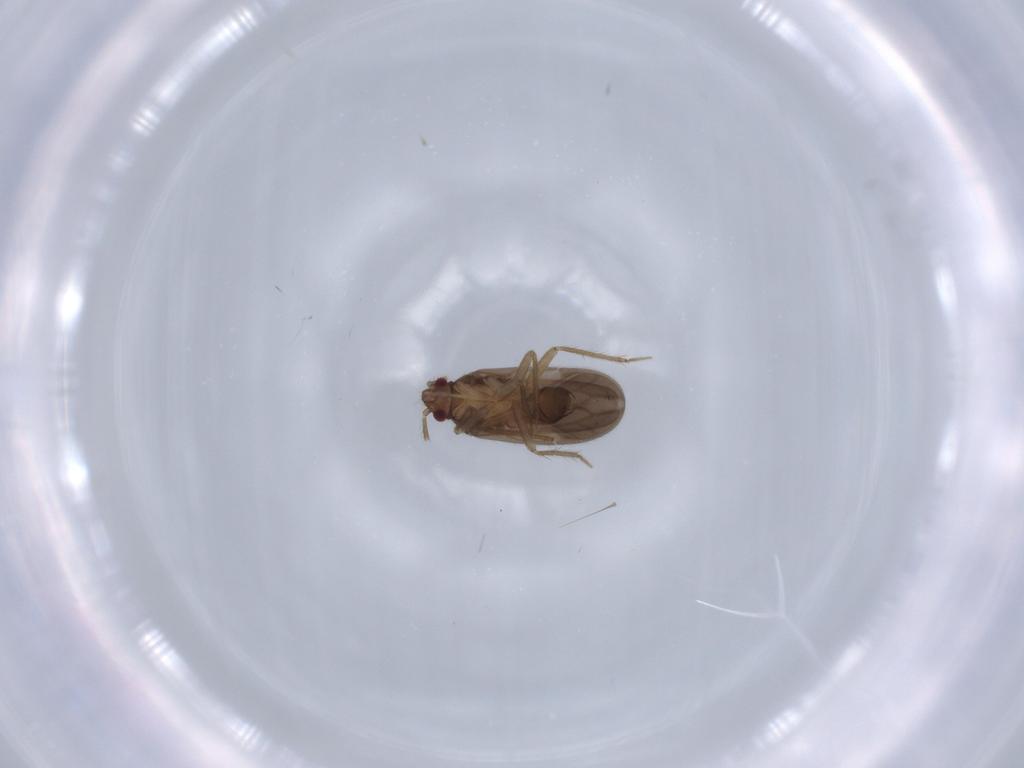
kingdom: Animalia
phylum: Arthropoda
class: Insecta
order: Hemiptera
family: Ceratocombidae
